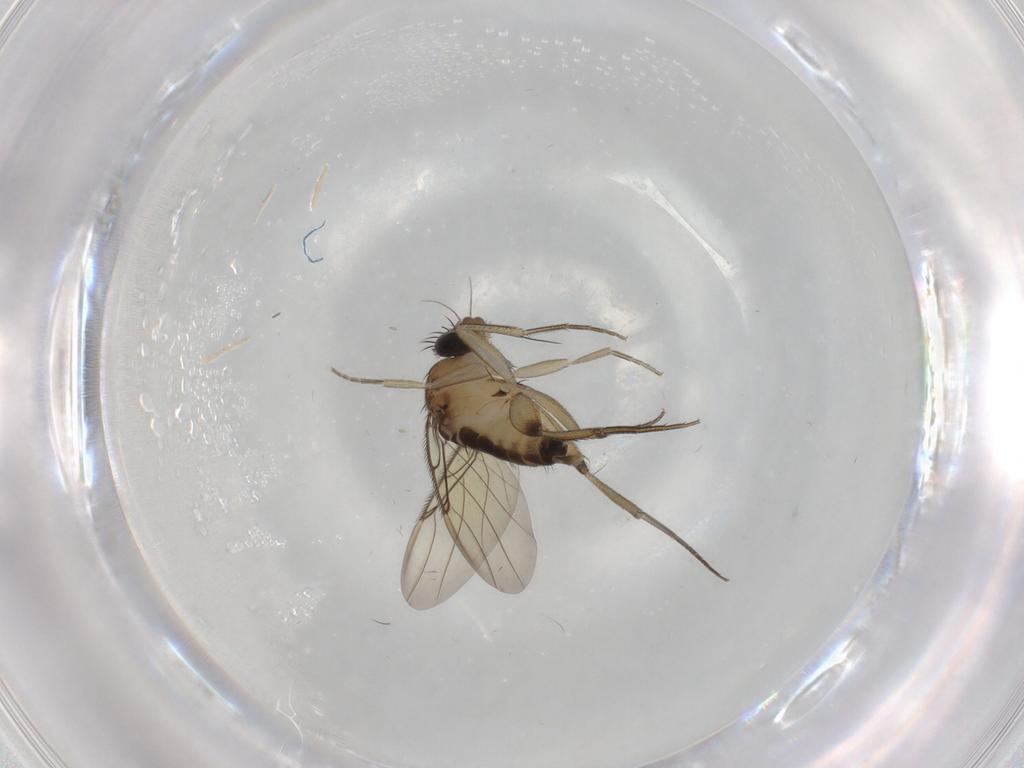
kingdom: Animalia
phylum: Arthropoda
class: Insecta
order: Diptera
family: Phoridae
